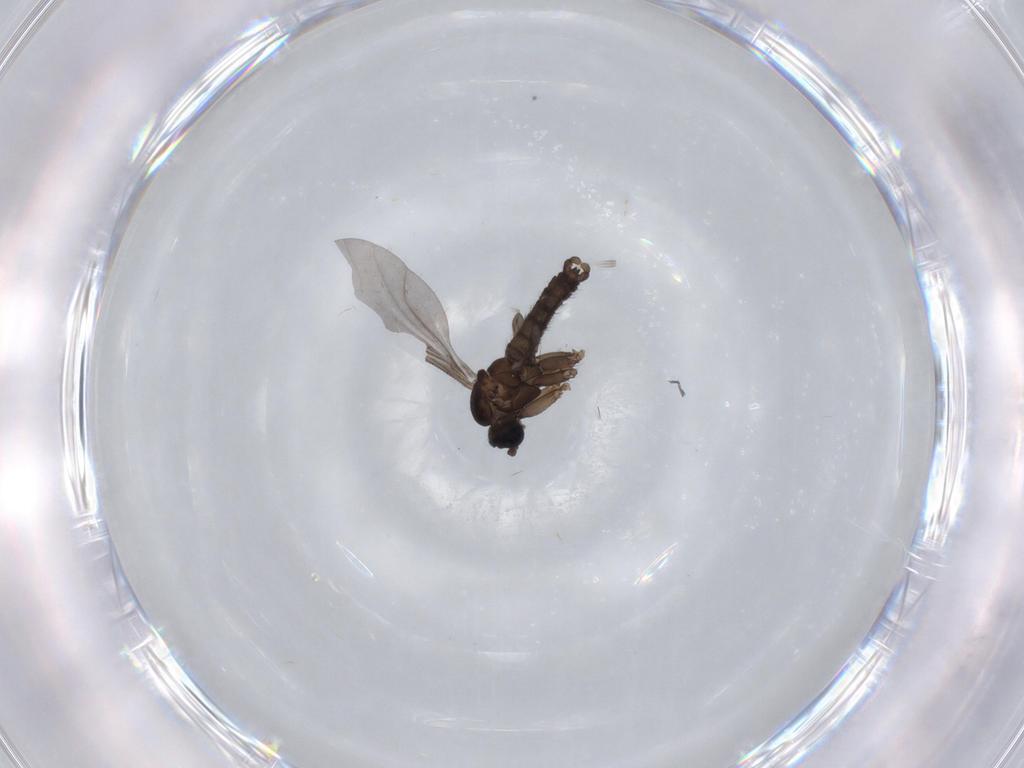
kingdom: Animalia
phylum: Arthropoda
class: Insecta
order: Diptera
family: Sciaridae
